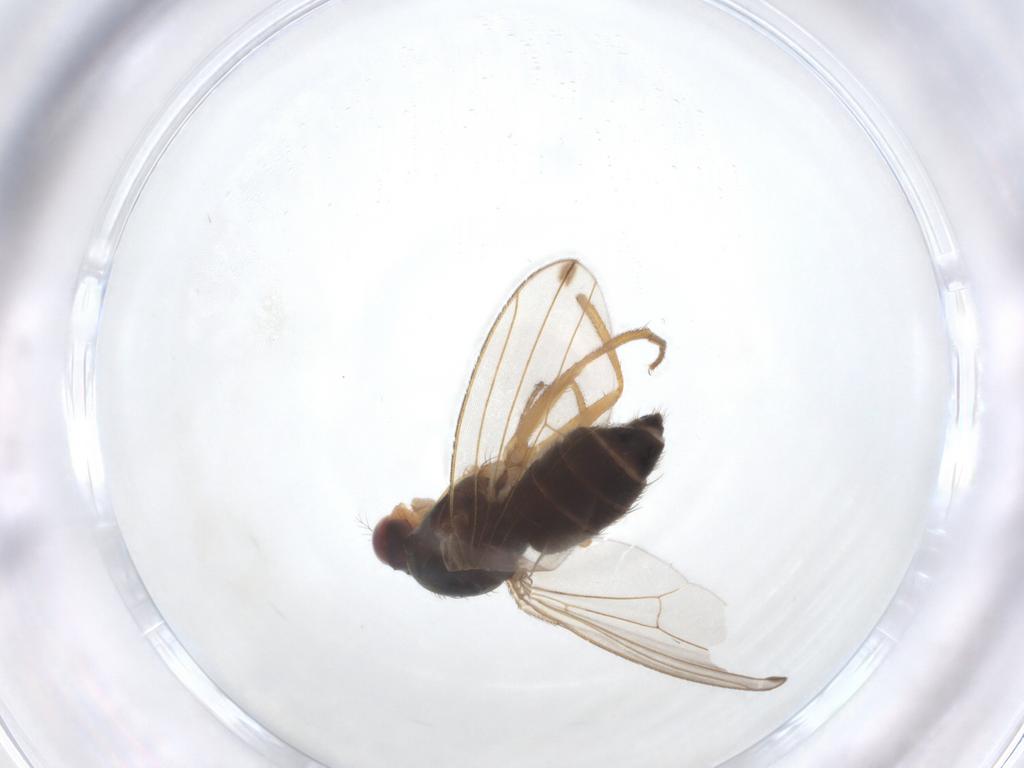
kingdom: Animalia
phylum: Arthropoda
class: Insecta
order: Diptera
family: Drosophilidae
